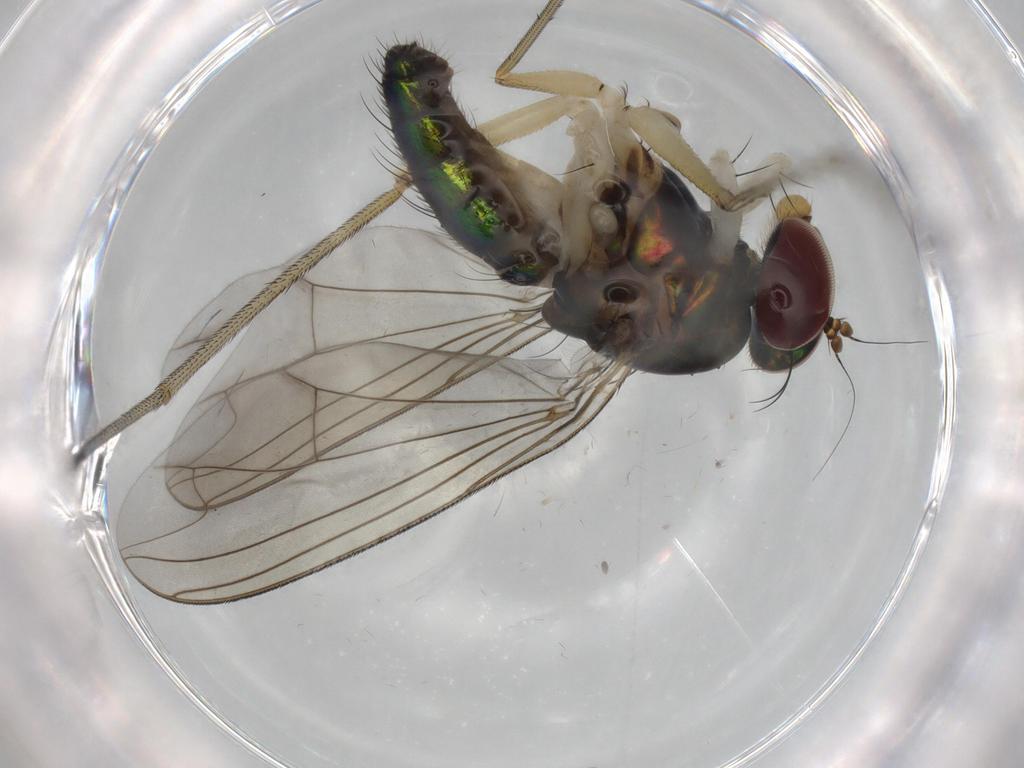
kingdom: Animalia
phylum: Arthropoda
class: Insecta
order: Diptera
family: Dolichopodidae
